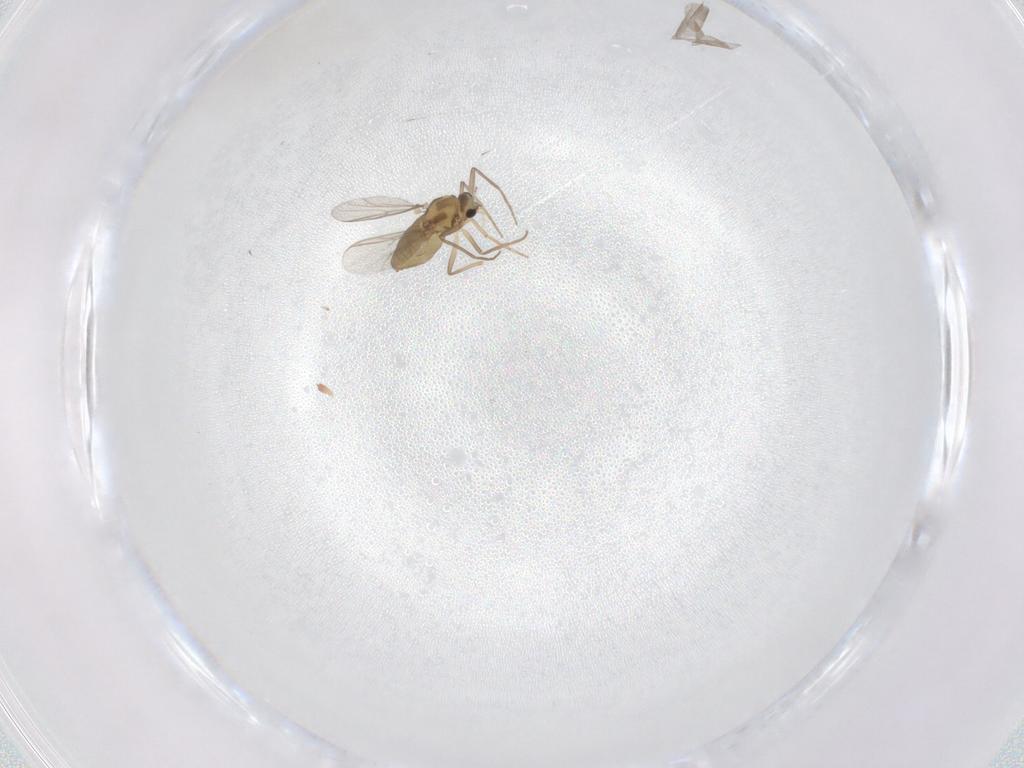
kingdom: Animalia
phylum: Arthropoda
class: Insecta
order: Diptera
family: Chironomidae
